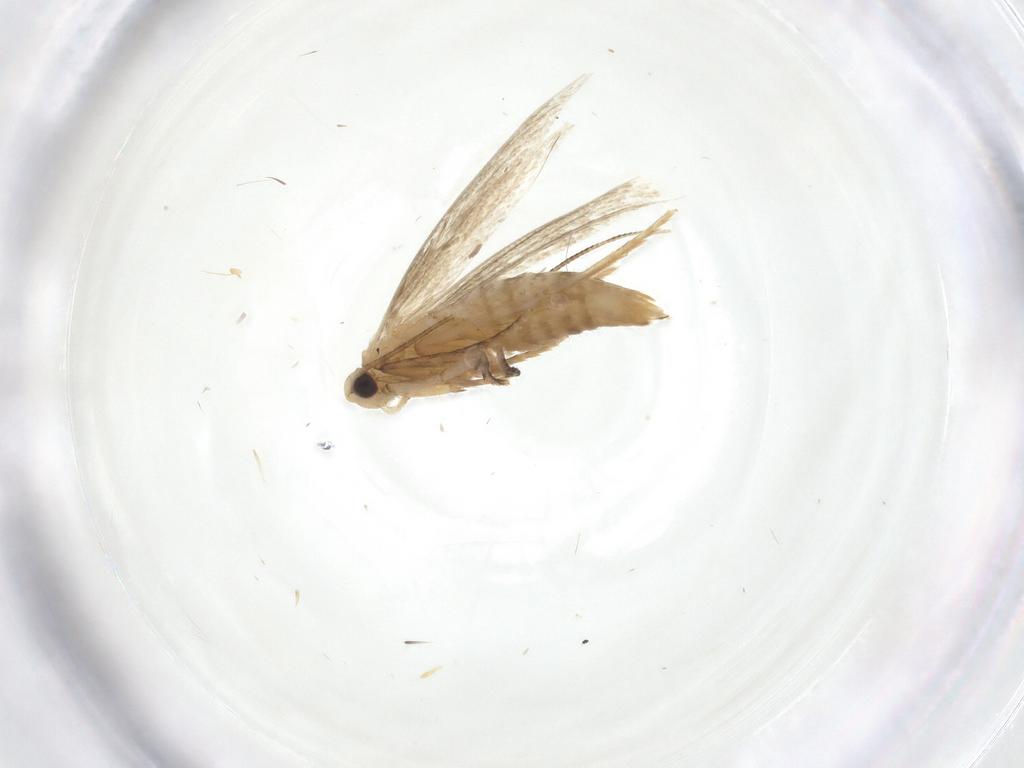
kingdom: Animalia
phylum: Arthropoda
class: Insecta
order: Lepidoptera
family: Tineidae
